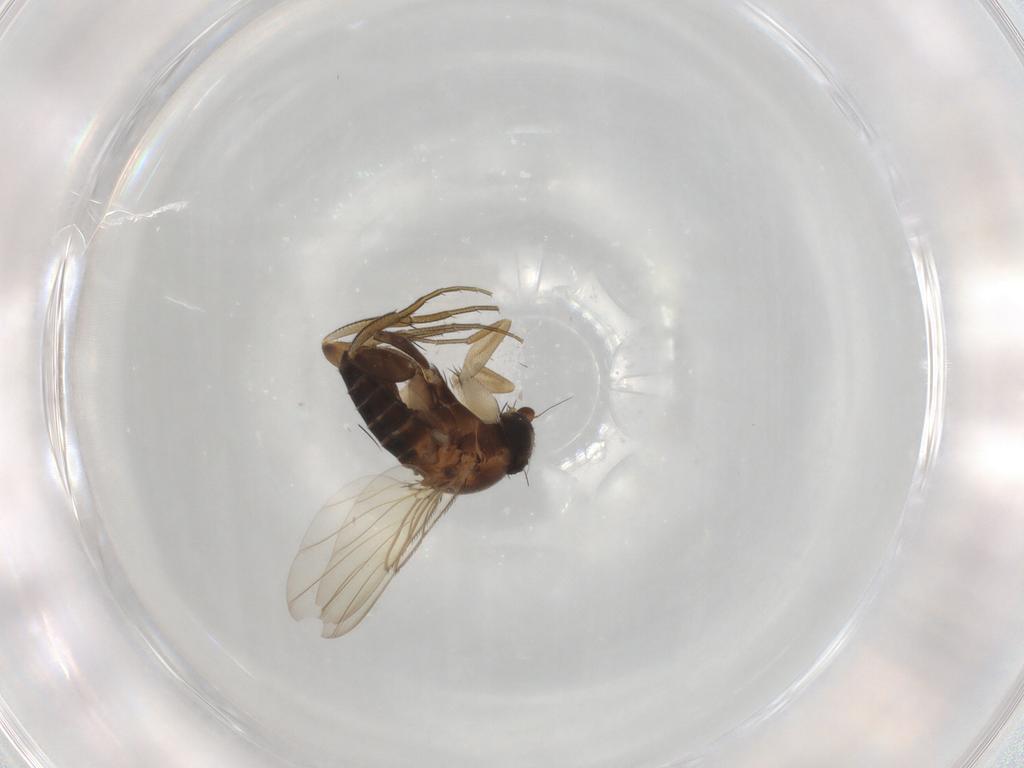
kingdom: Animalia
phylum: Arthropoda
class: Insecta
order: Diptera
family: Phoridae
